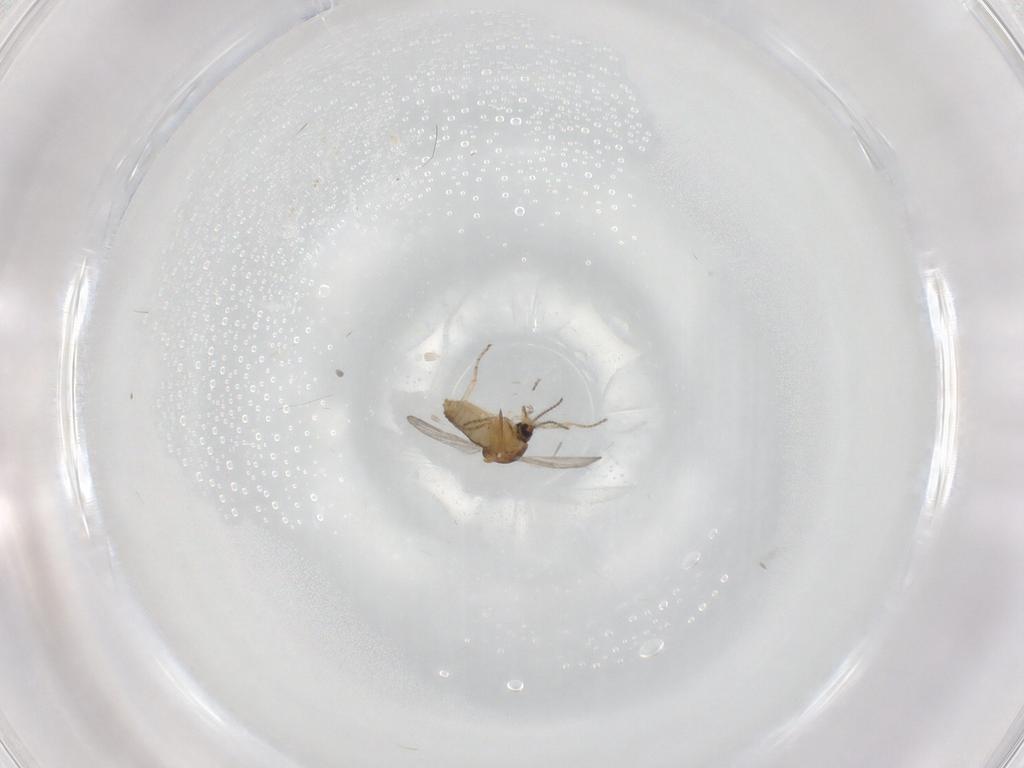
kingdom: Animalia
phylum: Arthropoda
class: Insecta
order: Diptera
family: Ceratopogonidae
